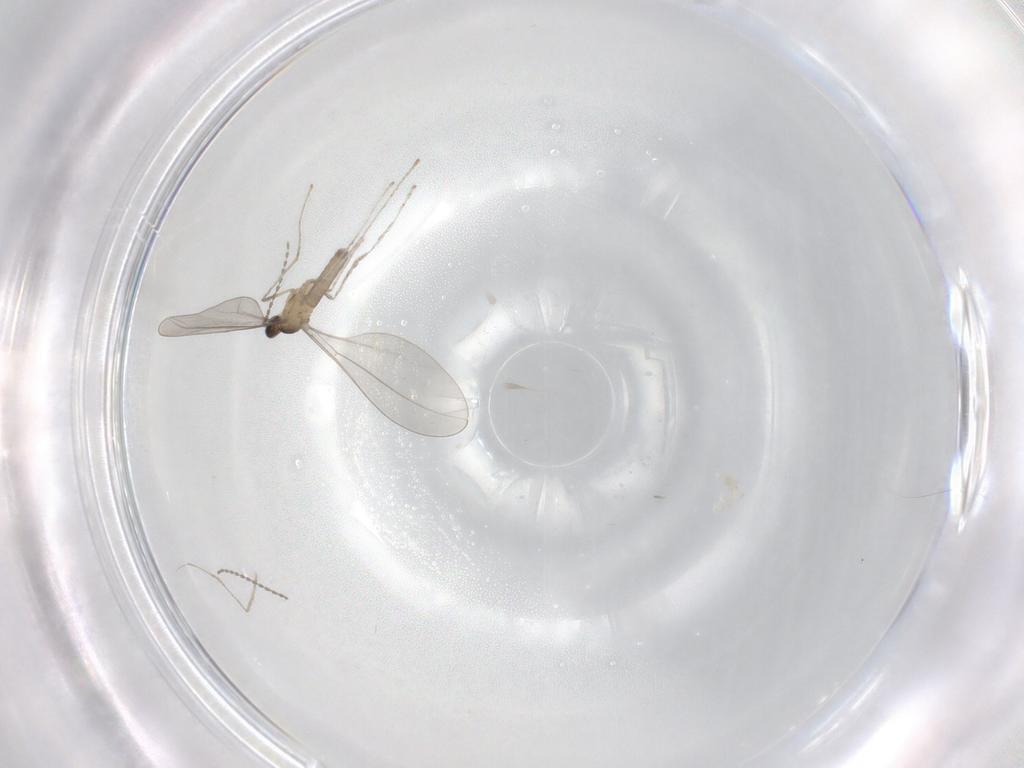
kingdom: Animalia
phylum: Arthropoda
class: Insecta
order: Diptera
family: Cecidomyiidae
